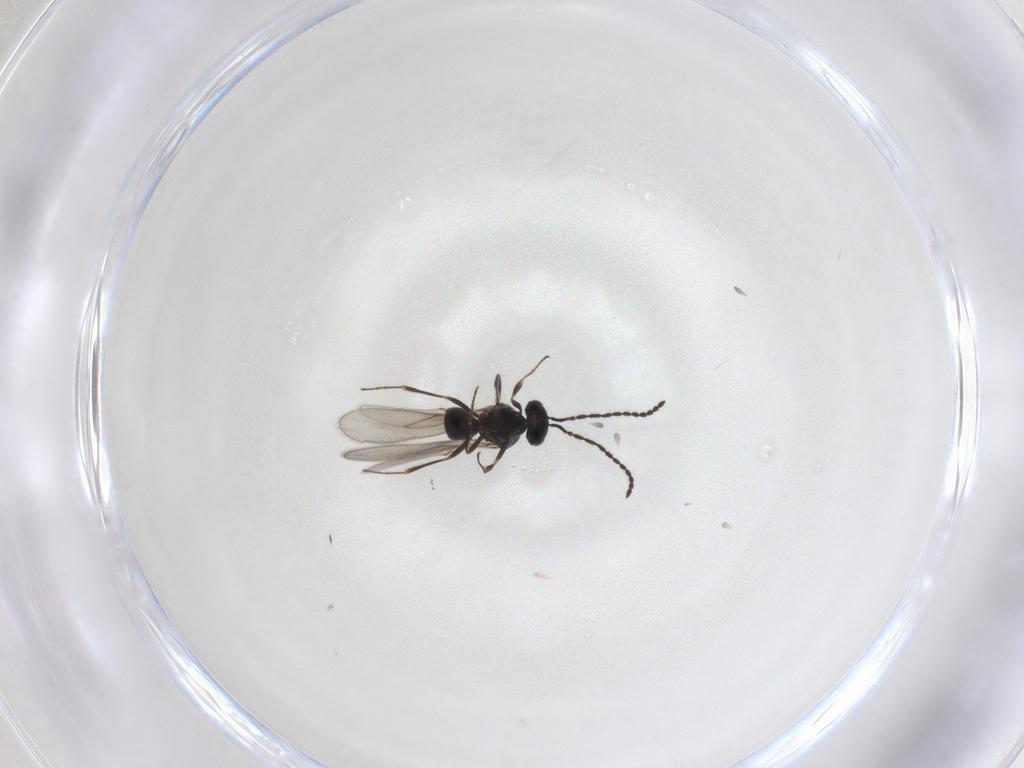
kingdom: Animalia
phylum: Arthropoda
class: Insecta
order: Hymenoptera
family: Scelionidae
